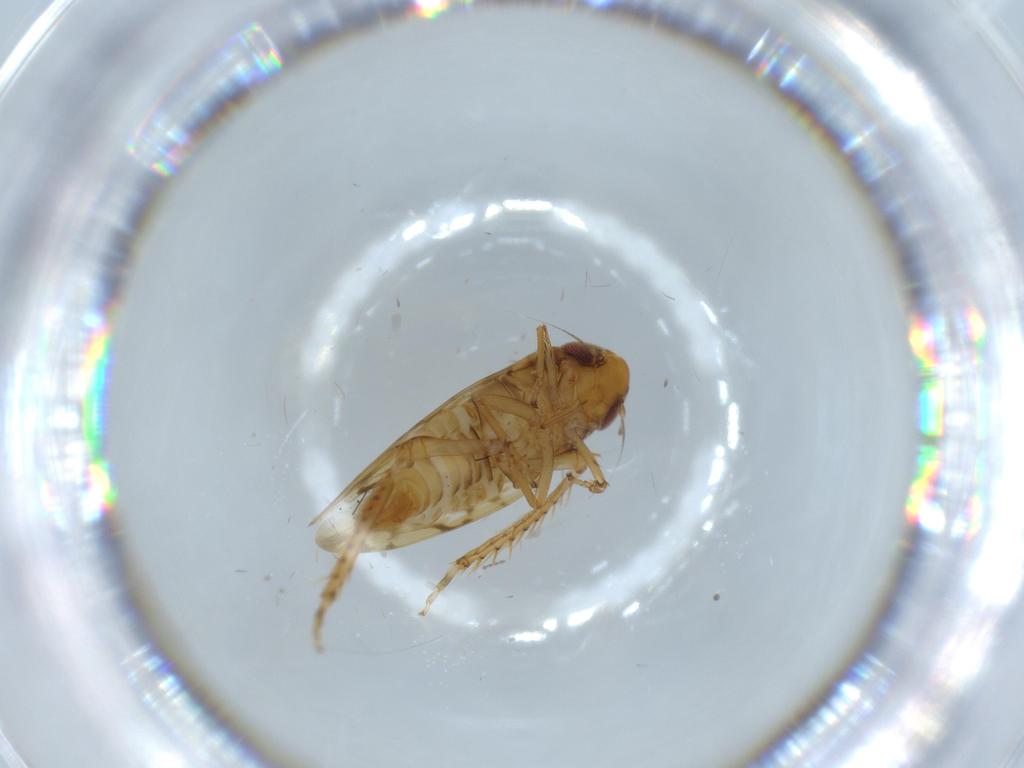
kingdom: Animalia
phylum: Arthropoda
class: Insecta
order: Hemiptera
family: Cicadellidae
